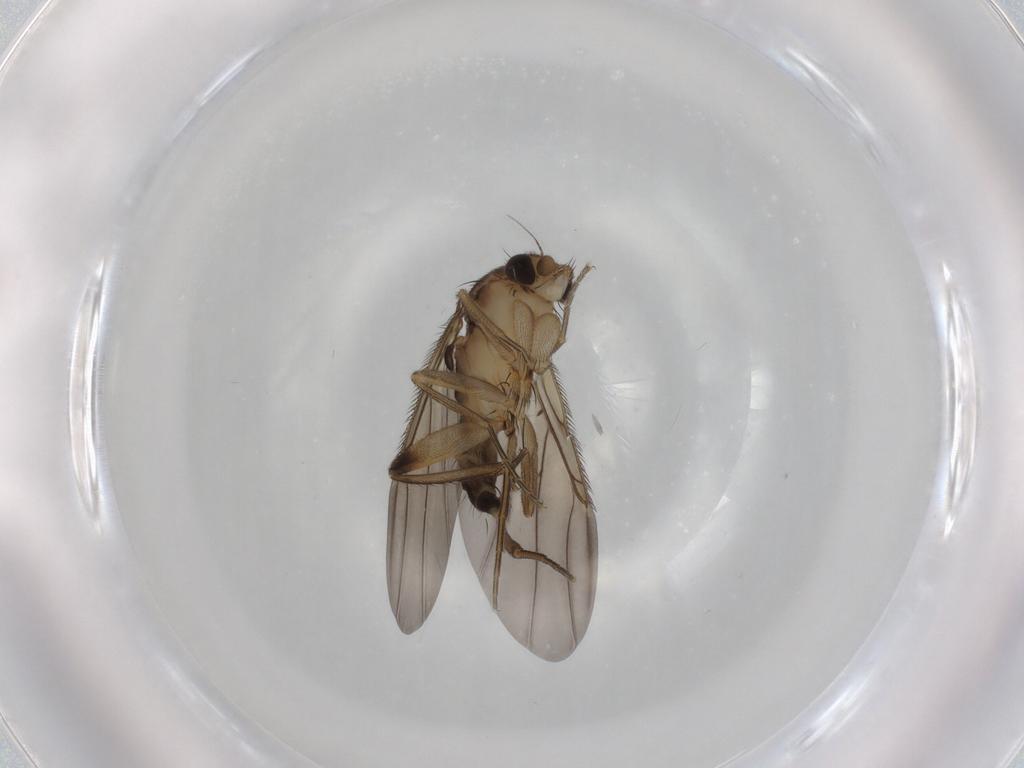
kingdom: Animalia
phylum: Arthropoda
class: Insecta
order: Diptera
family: Phoridae
